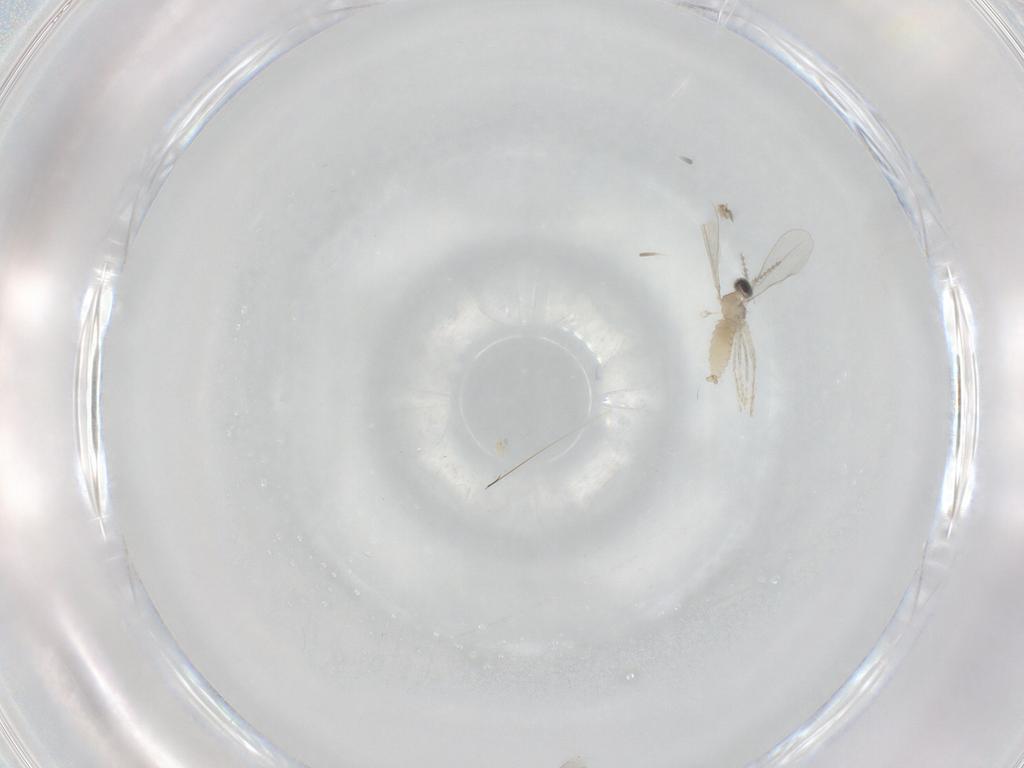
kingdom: Animalia
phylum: Arthropoda
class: Insecta
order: Diptera
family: Cecidomyiidae
